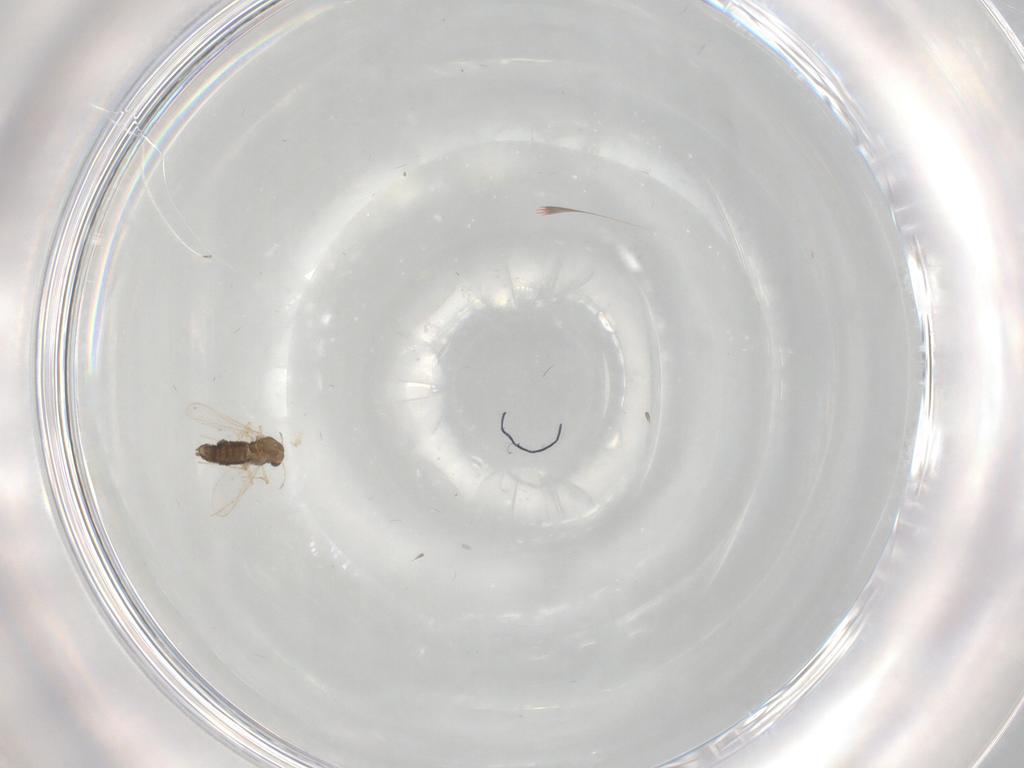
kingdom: Animalia
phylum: Arthropoda
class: Insecta
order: Diptera
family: Chironomidae
